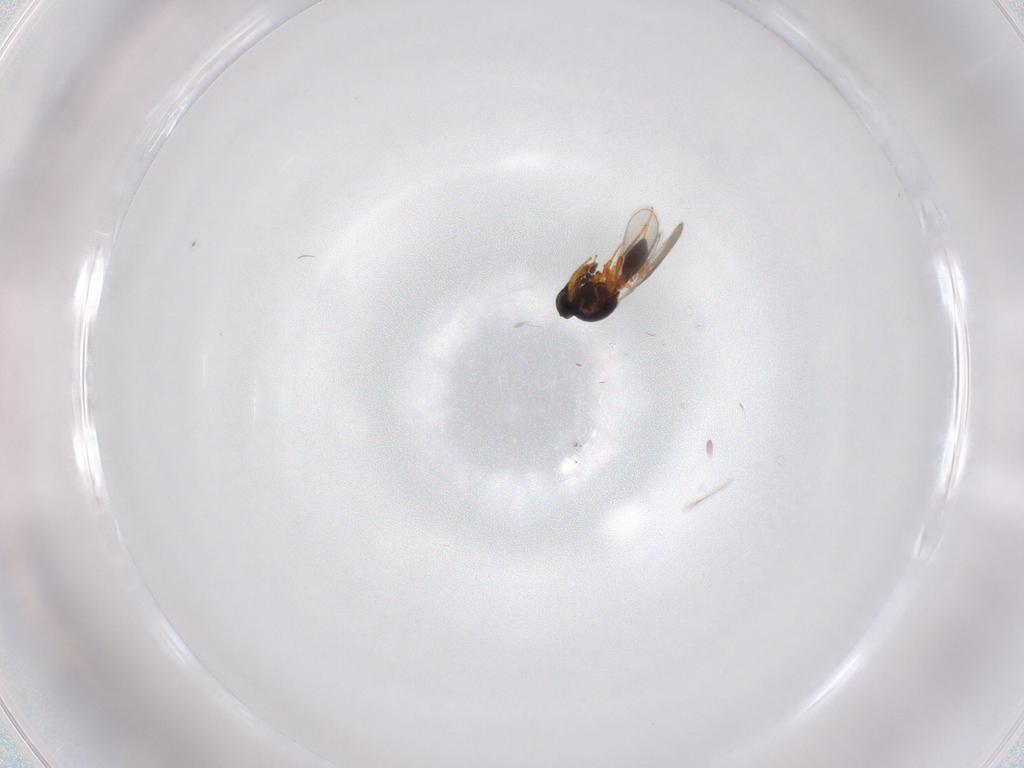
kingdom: Animalia
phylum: Arthropoda
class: Insecta
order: Hymenoptera
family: Platygastridae
